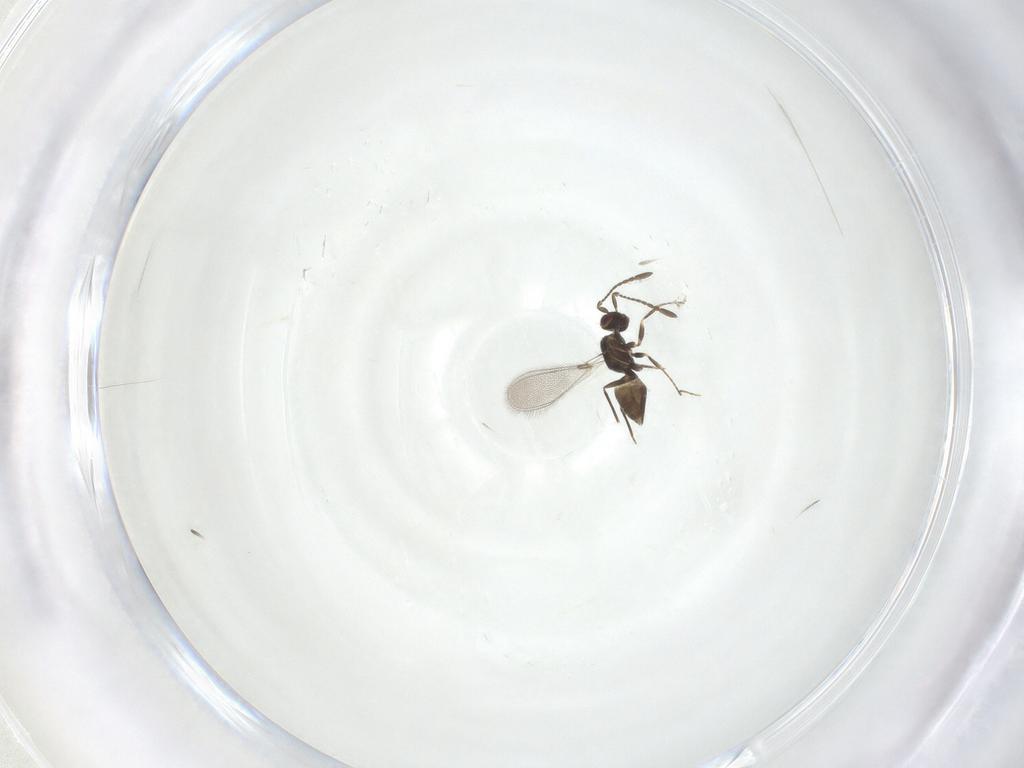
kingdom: Animalia
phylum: Arthropoda
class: Insecta
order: Hymenoptera
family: Mymaridae
